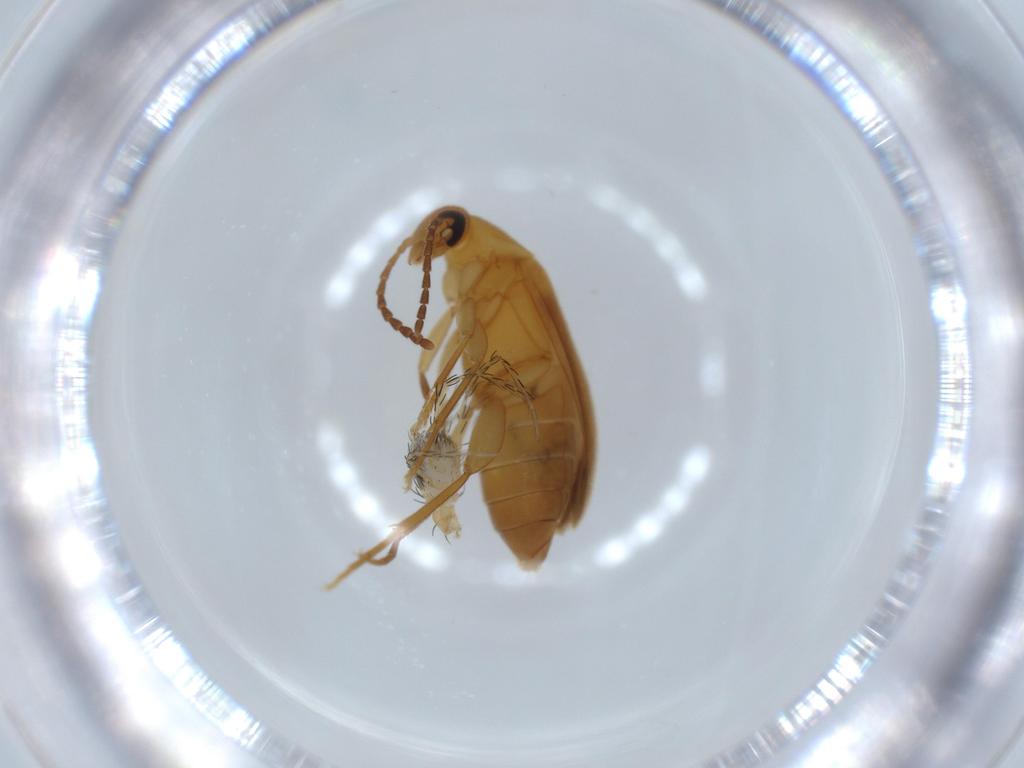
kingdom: Animalia
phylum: Arthropoda
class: Insecta
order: Coleoptera
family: Scraptiidae
